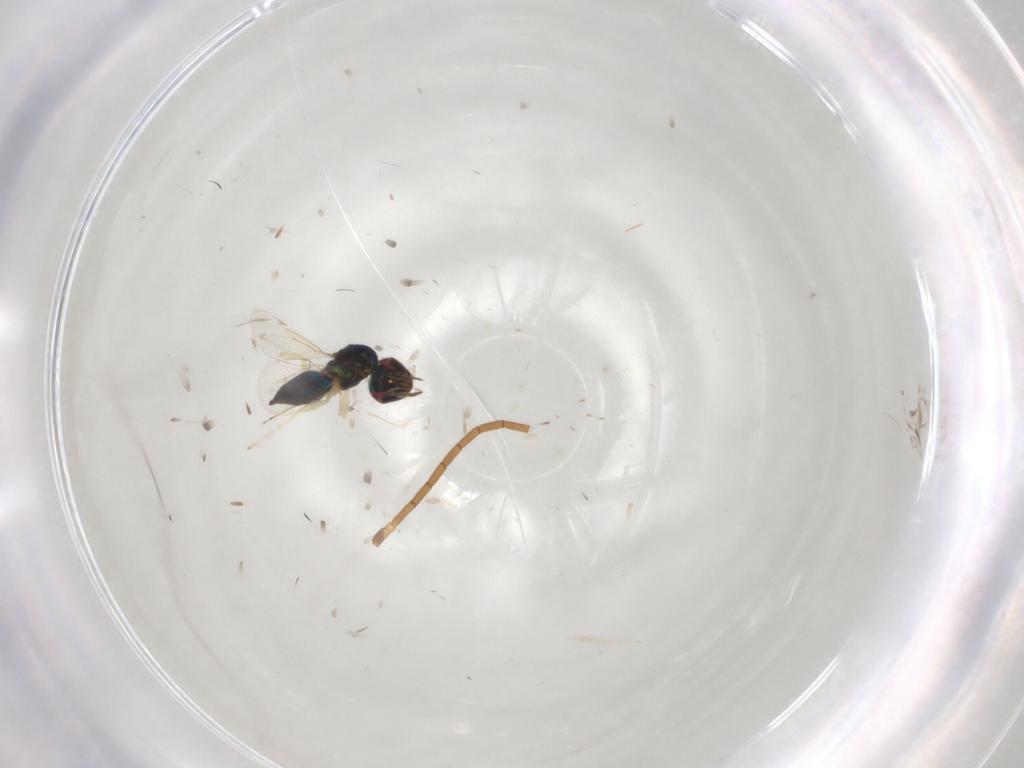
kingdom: Animalia
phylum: Arthropoda
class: Insecta
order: Hymenoptera
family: Eulophidae
